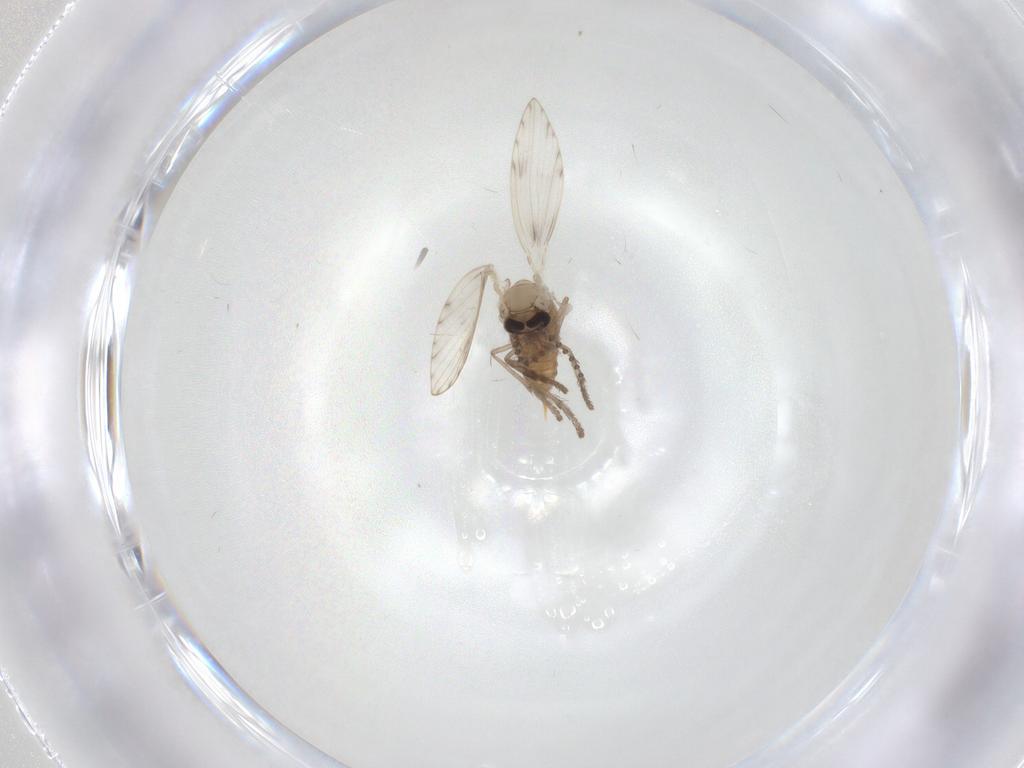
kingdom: Animalia
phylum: Arthropoda
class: Insecta
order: Diptera
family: Psychodidae
